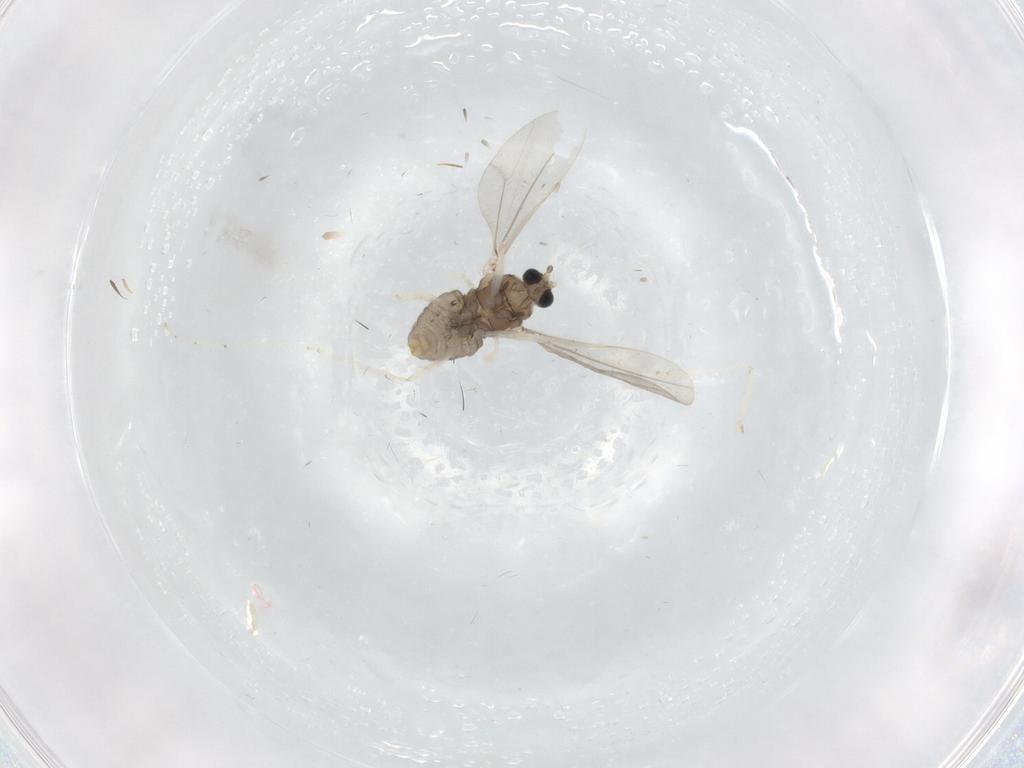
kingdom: Animalia
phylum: Arthropoda
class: Insecta
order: Diptera
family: Cecidomyiidae
